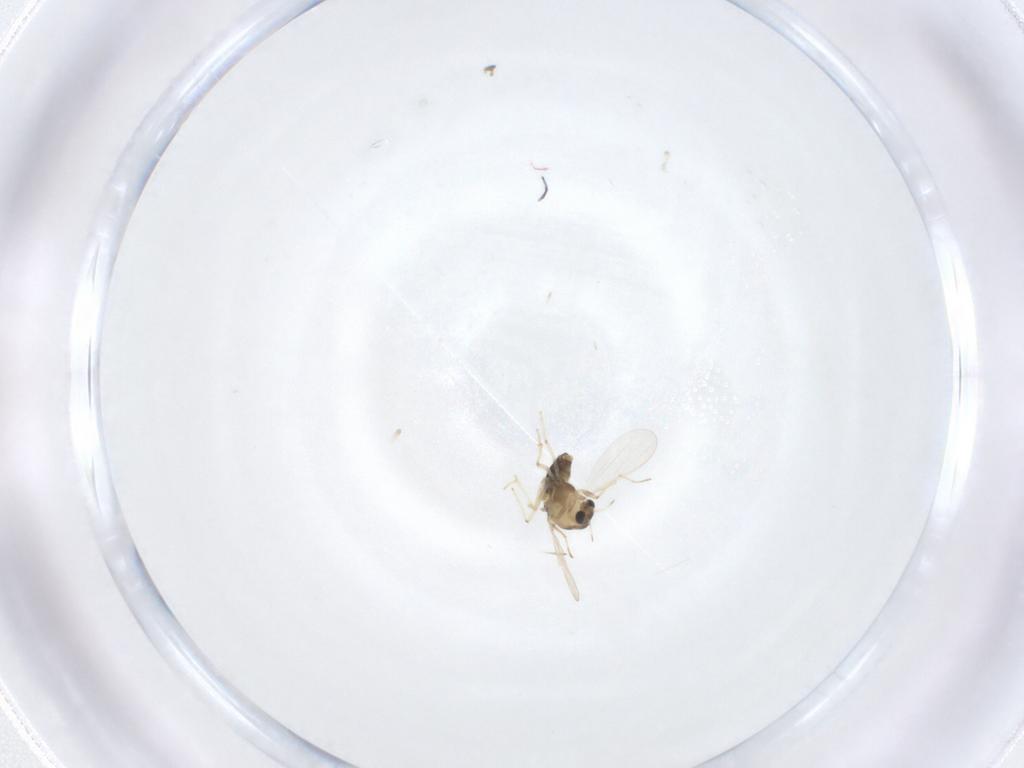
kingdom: Animalia
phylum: Arthropoda
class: Insecta
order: Diptera
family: Chironomidae
